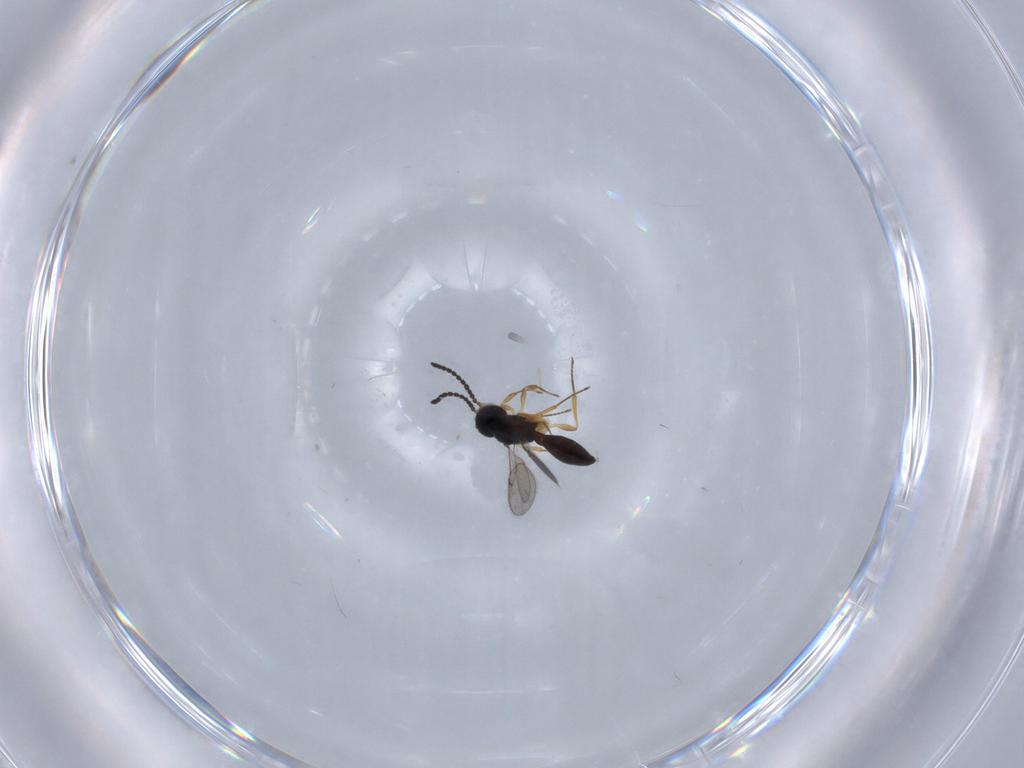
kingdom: Animalia
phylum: Arthropoda
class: Insecta
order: Hymenoptera
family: Scelionidae
